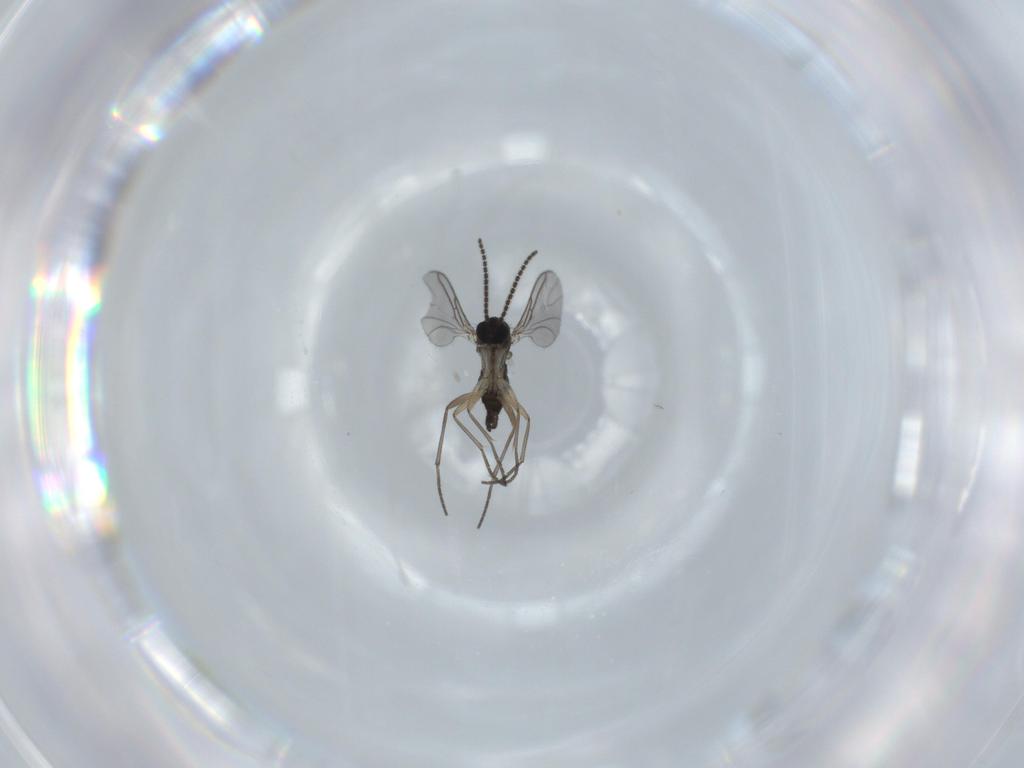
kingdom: Animalia
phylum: Arthropoda
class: Insecta
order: Diptera
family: Sciaridae
